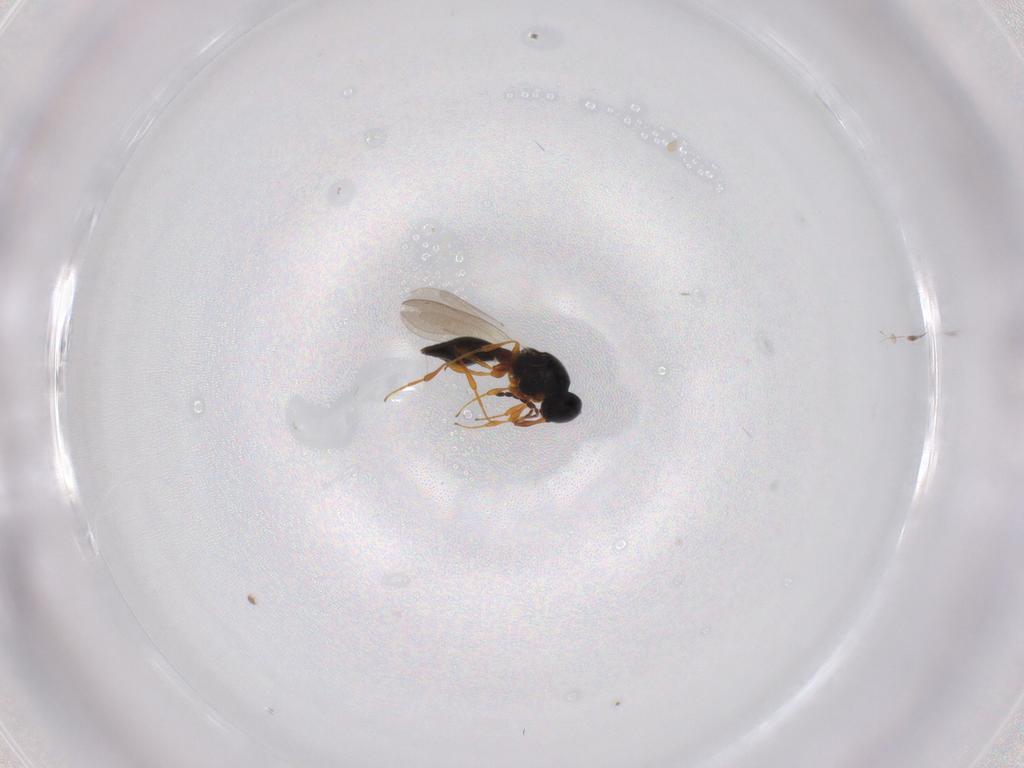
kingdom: Animalia
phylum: Arthropoda
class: Insecta
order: Hymenoptera
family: Platygastridae
